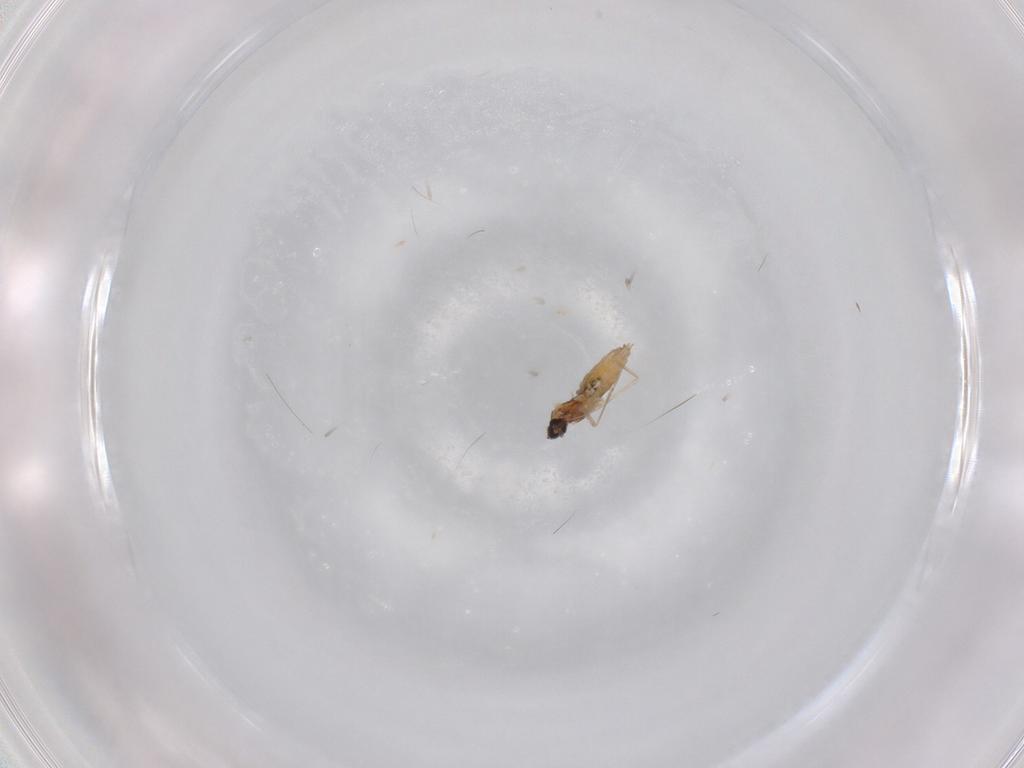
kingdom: Animalia
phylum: Arthropoda
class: Insecta
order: Diptera
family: Cecidomyiidae
